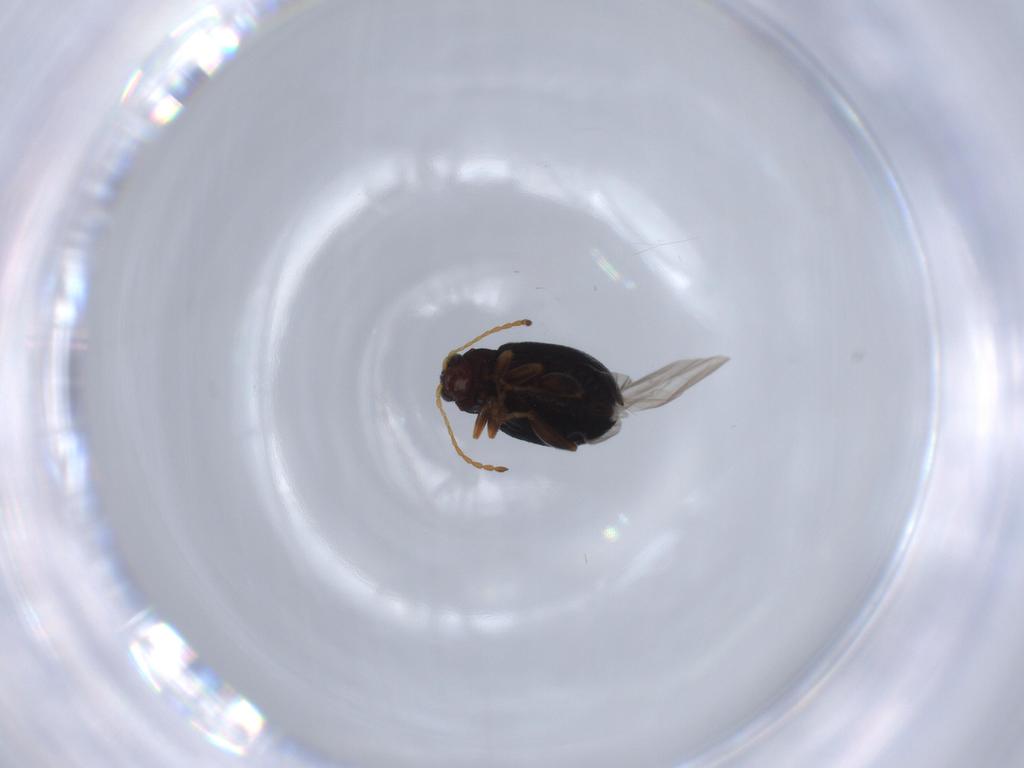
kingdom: Animalia
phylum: Arthropoda
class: Insecta
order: Coleoptera
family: Chrysomelidae
